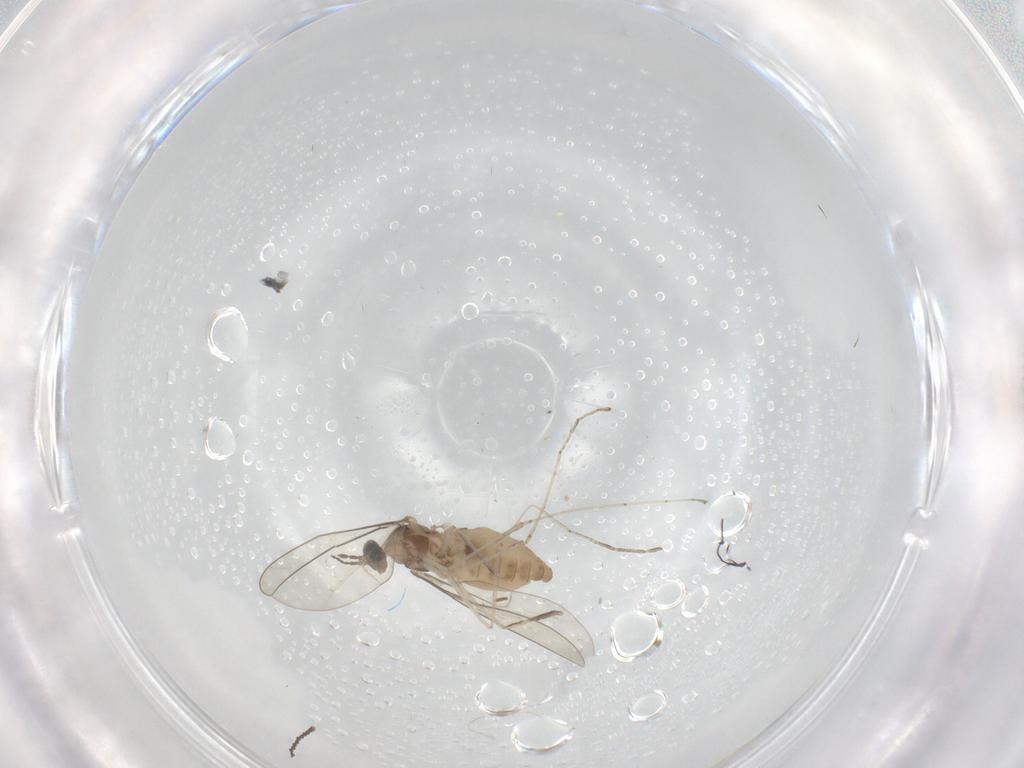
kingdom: Animalia
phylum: Arthropoda
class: Insecta
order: Diptera
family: Cecidomyiidae
